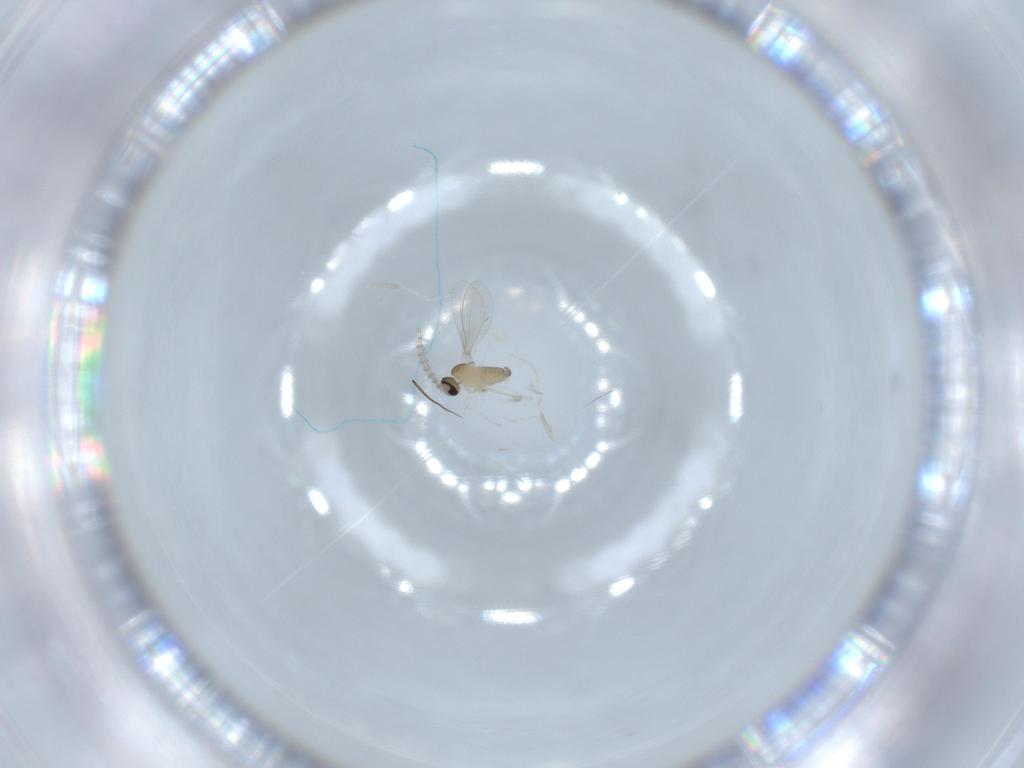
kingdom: Animalia
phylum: Arthropoda
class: Insecta
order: Diptera
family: Cecidomyiidae
